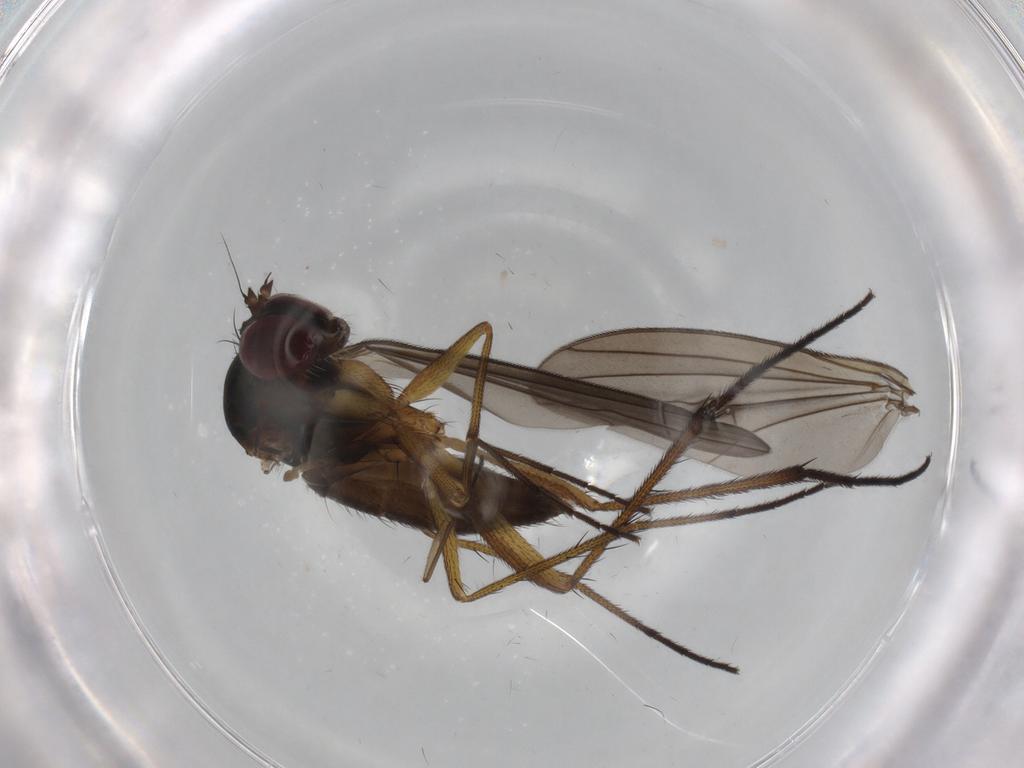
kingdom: Animalia
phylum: Arthropoda
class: Insecta
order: Diptera
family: Dolichopodidae
